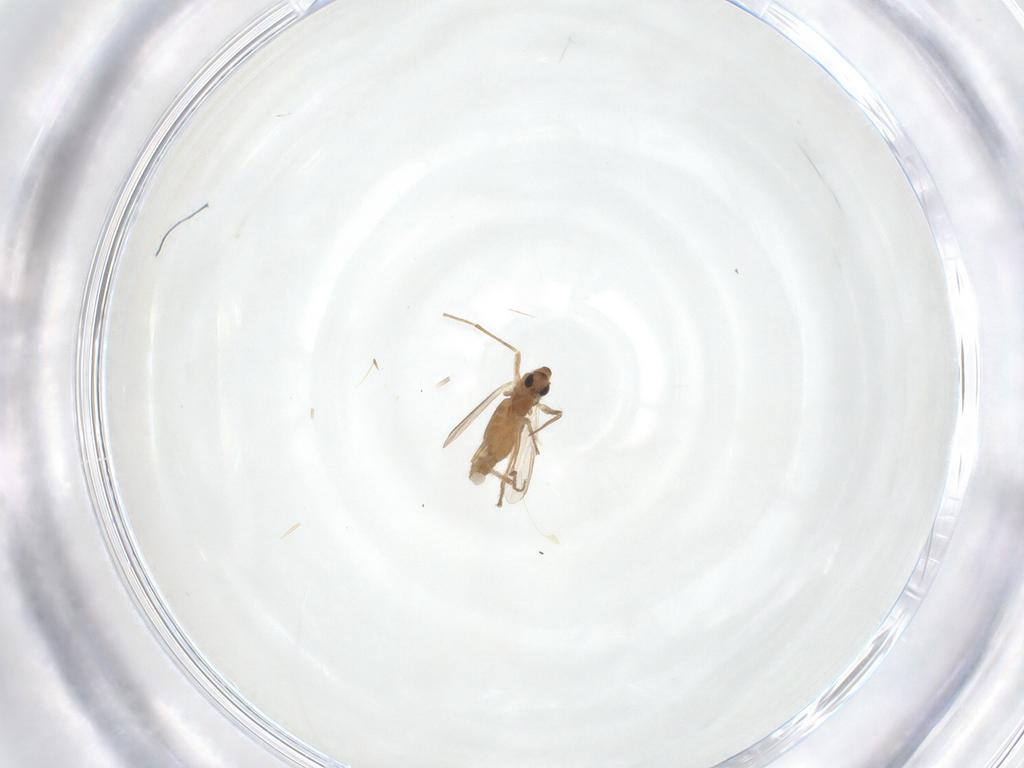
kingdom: Animalia
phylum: Arthropoda
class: Insecta
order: Diptera
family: Chironomidae
